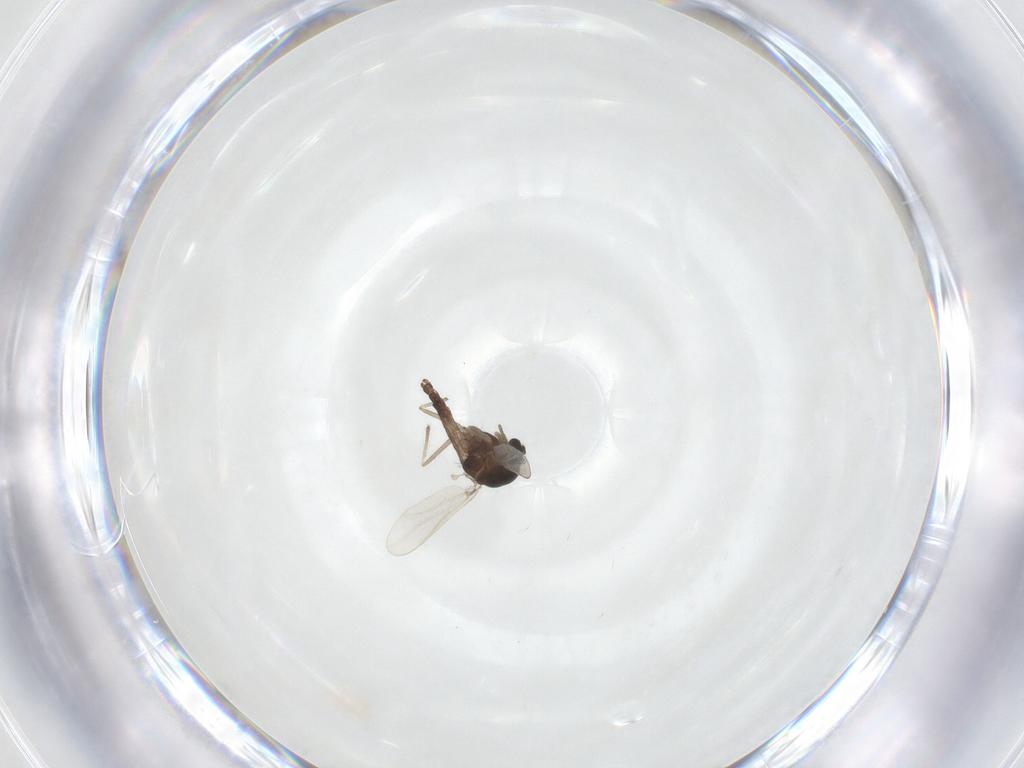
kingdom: Animalia
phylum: Arthropoda
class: Insecta
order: Diptera
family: Chironomidae
